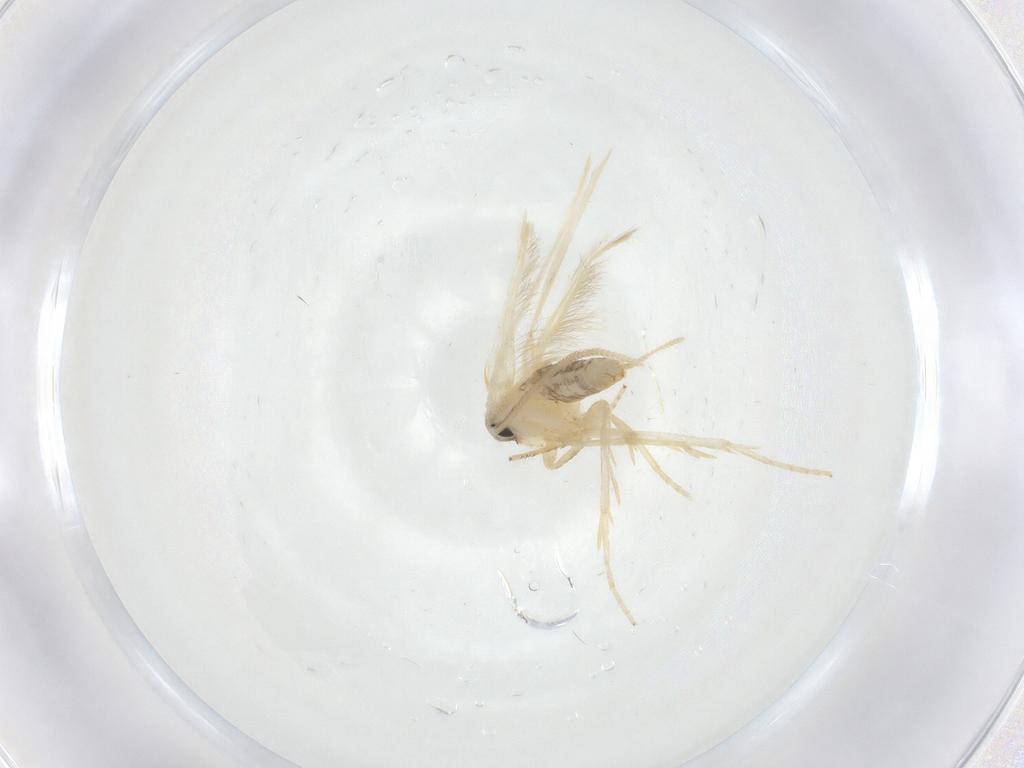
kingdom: Animalia
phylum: Arthropoda
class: Insecta
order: Lepidoptera
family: Opostegidae
